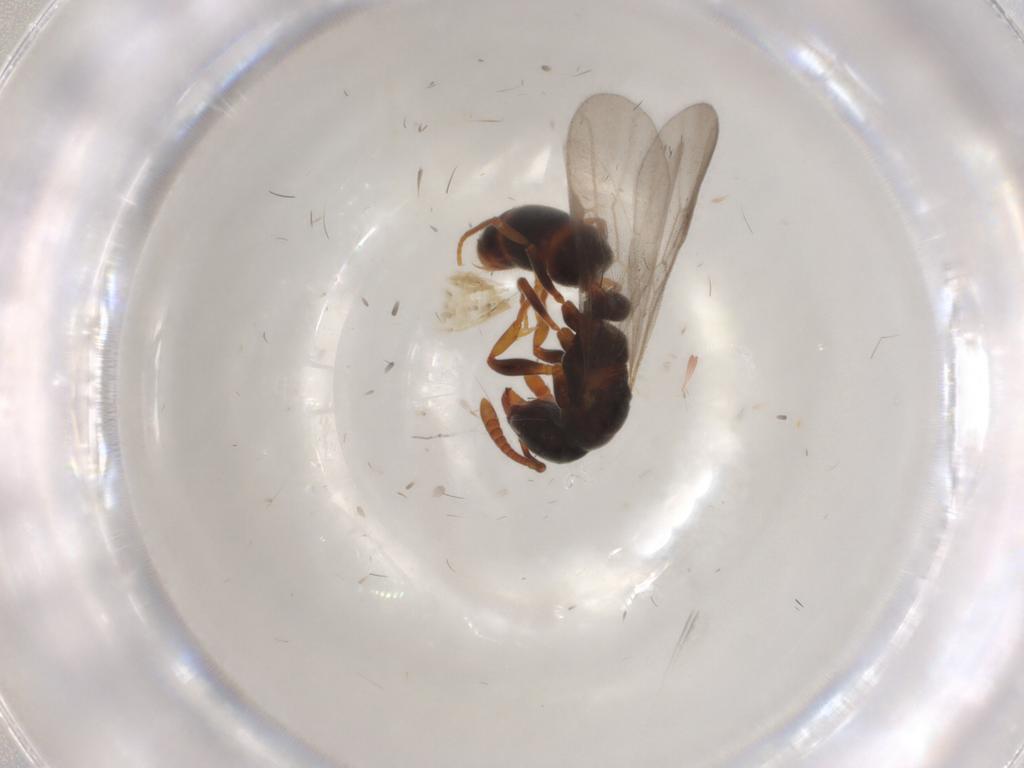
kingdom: Animalia
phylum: Arthropoda
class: Insecta
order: Hymenoptera
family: Formicidae
